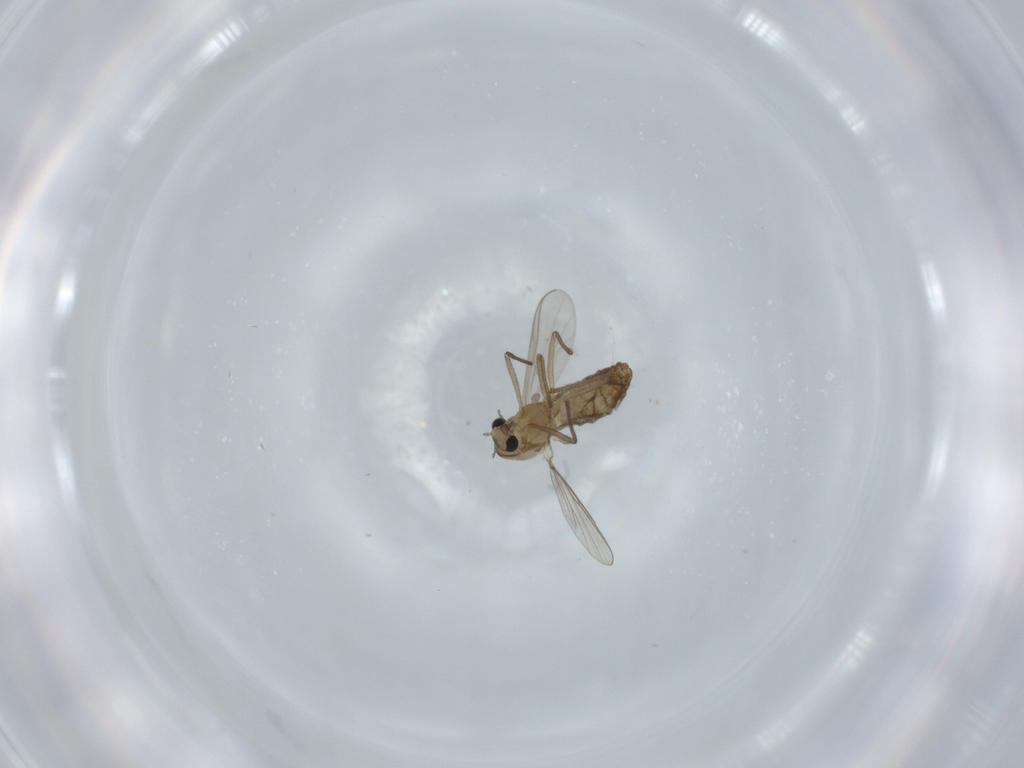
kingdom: Animalia
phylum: Arthropoda
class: Insecta
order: Diptera
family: Chironomidae
